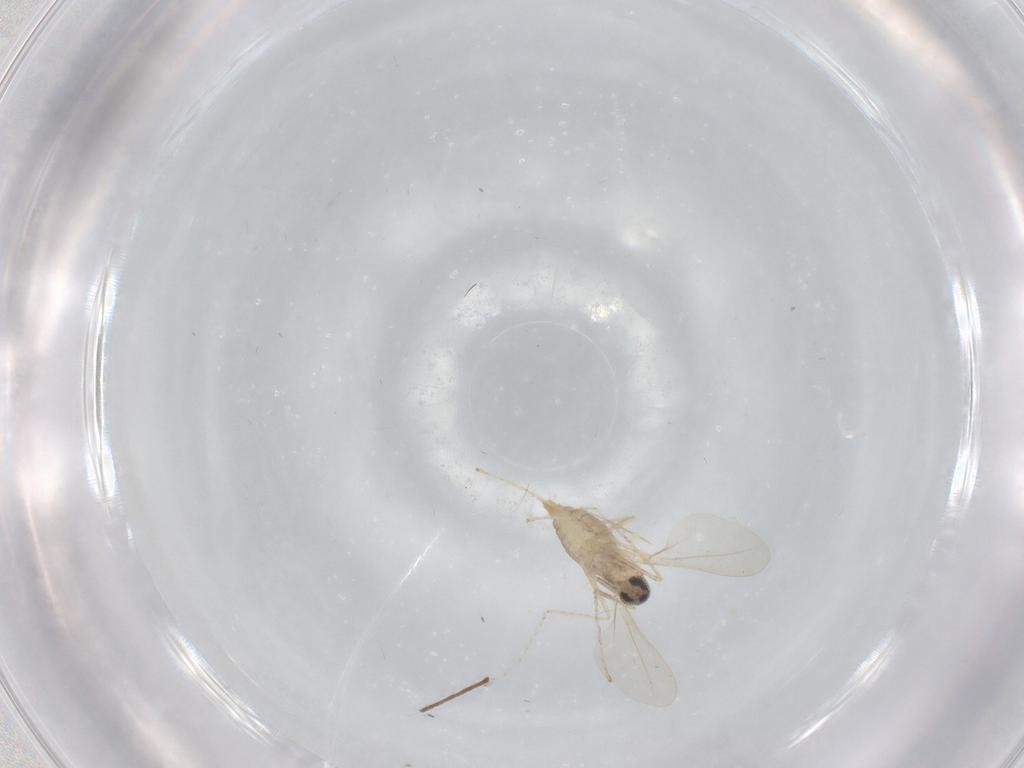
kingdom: Animalia
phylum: Arthropoda
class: Insecta
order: Diptera
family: Cecidomyiidae
